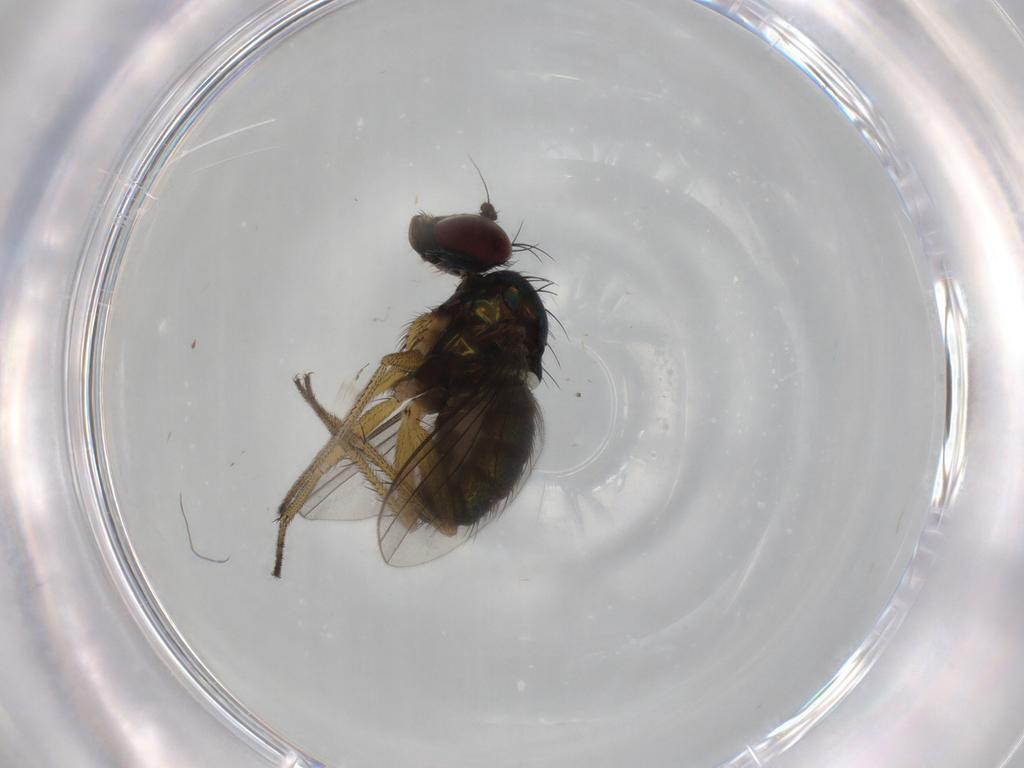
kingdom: Animalia
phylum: Arthropoda
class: Insecta
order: Diptera
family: Dolichopodidae
